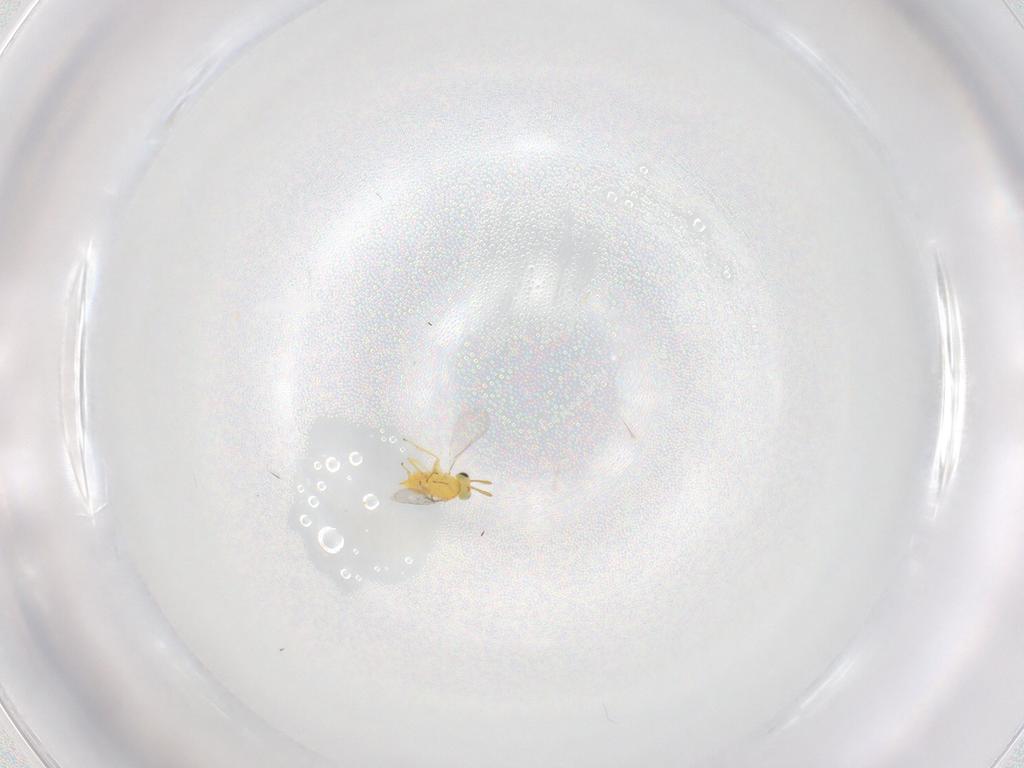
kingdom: Animalia
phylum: Arthropoda
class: Insecta
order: Hymenoptera
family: Aphelinidae
